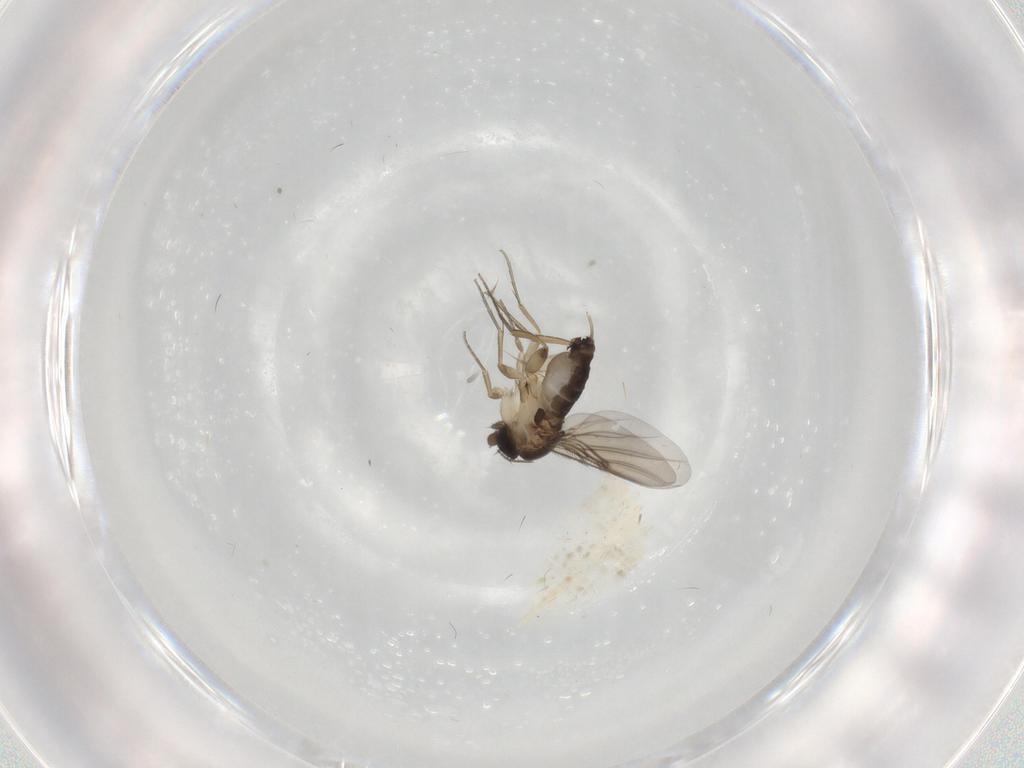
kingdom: Animalia
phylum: Arthropoda
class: Insecta
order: Diptera
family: Chironomidae
